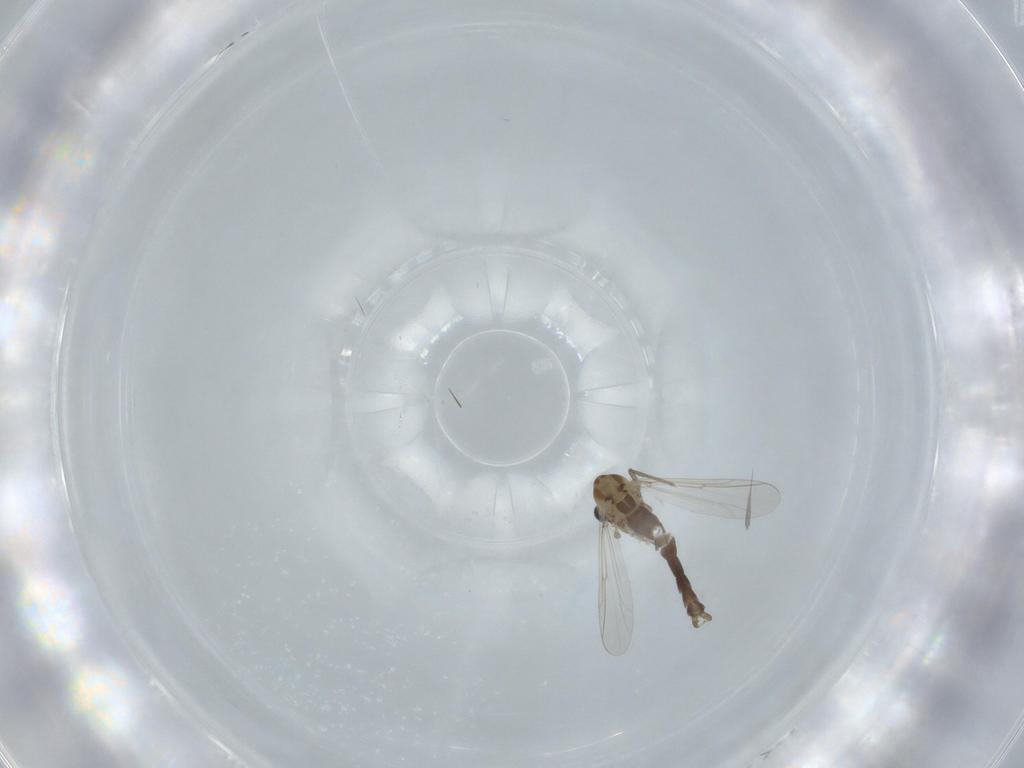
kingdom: Animalia
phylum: Arthropoda
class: Insecta
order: Diptera
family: Chironomidae
